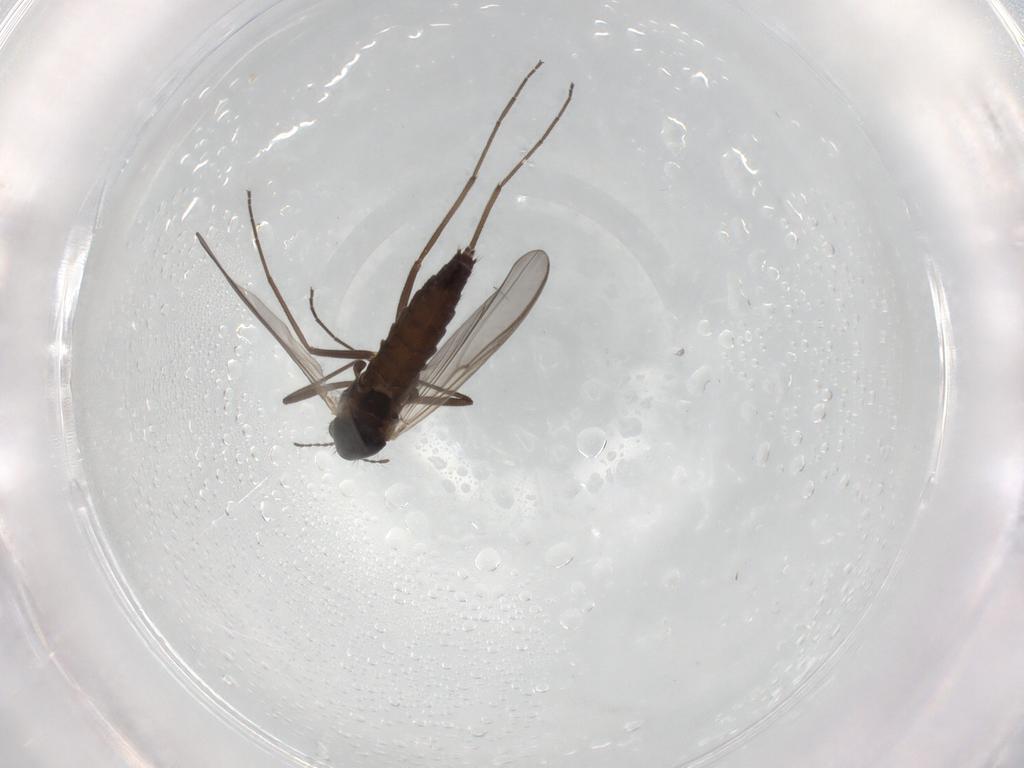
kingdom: Animalia
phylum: Arthropoda
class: Insecta
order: Diptera
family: Chironomidae
